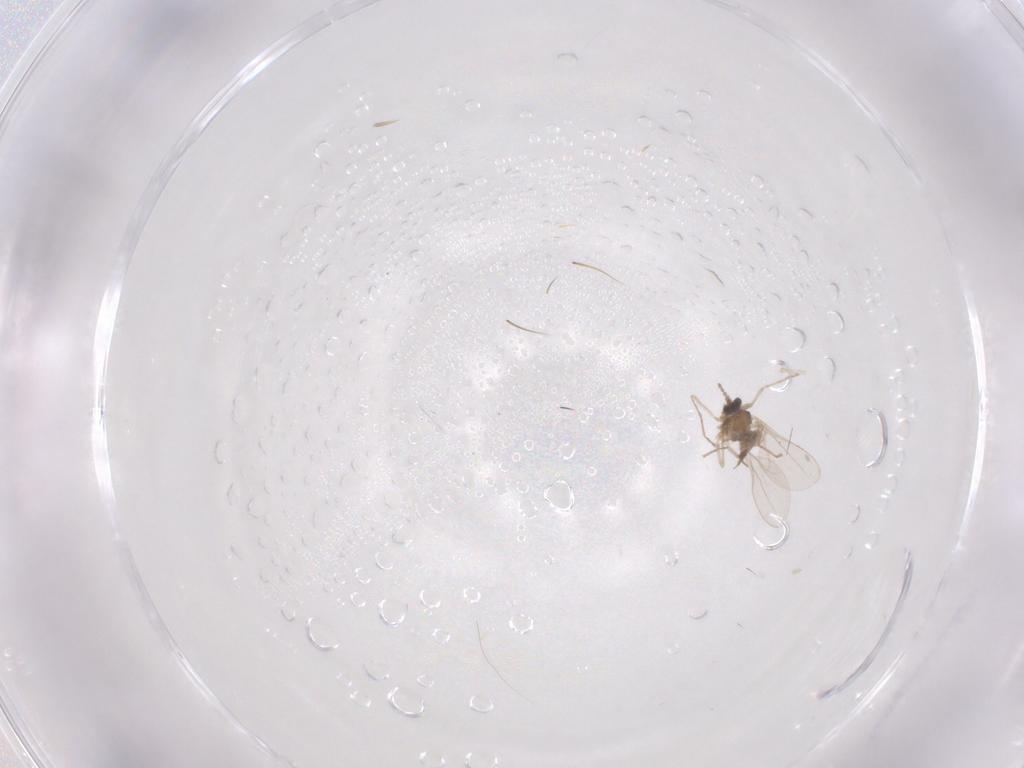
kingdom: Animalia
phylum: Arthropoda
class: Insecta
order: Diptera
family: Cecidomyiidae
